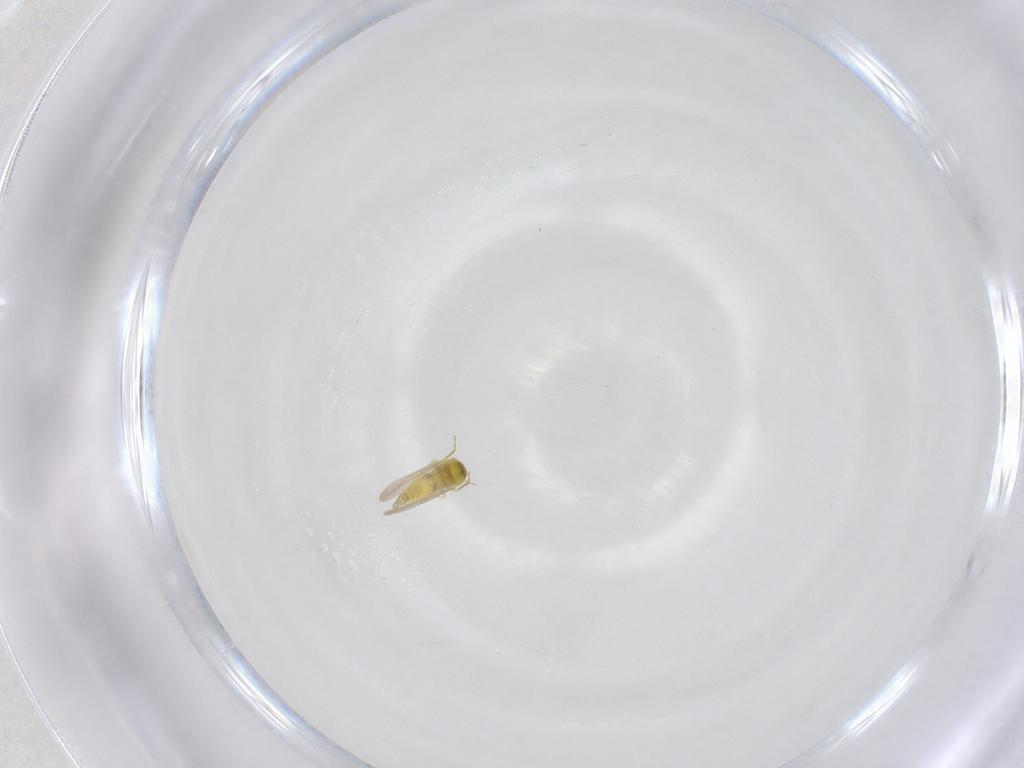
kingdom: Animalia
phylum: Arthropoda
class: Insecta
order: Hemiptera
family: Aleyrodidae
